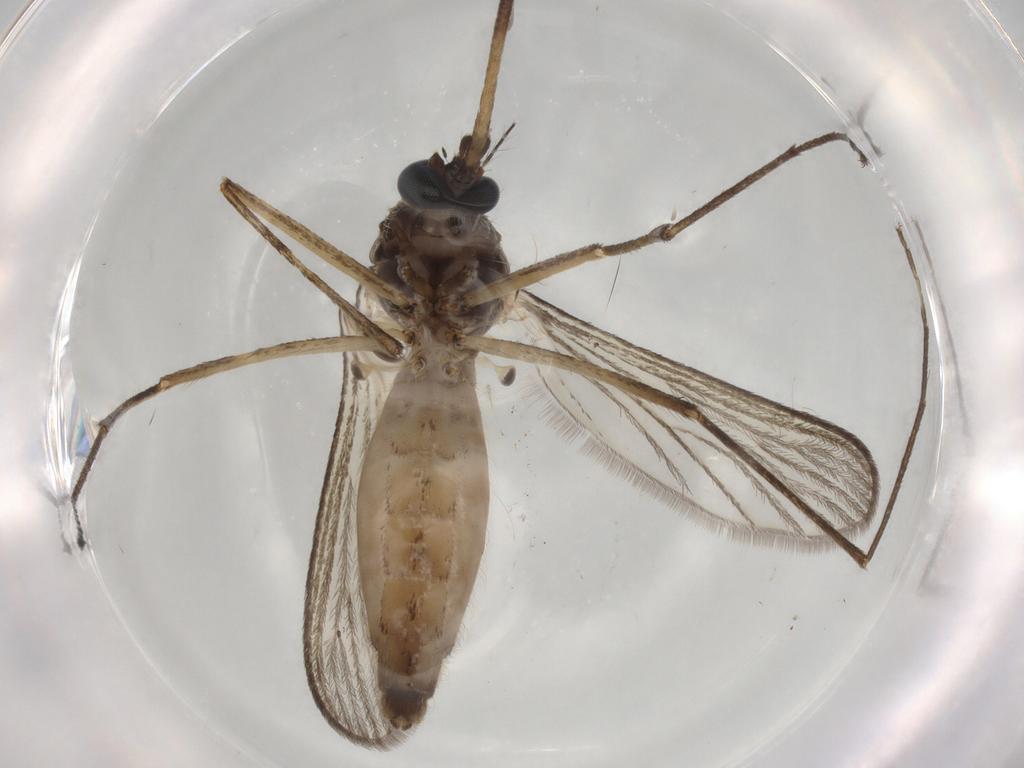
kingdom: Animalia
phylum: Arthropoda
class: Insecta
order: Diptera
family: Muscidae
